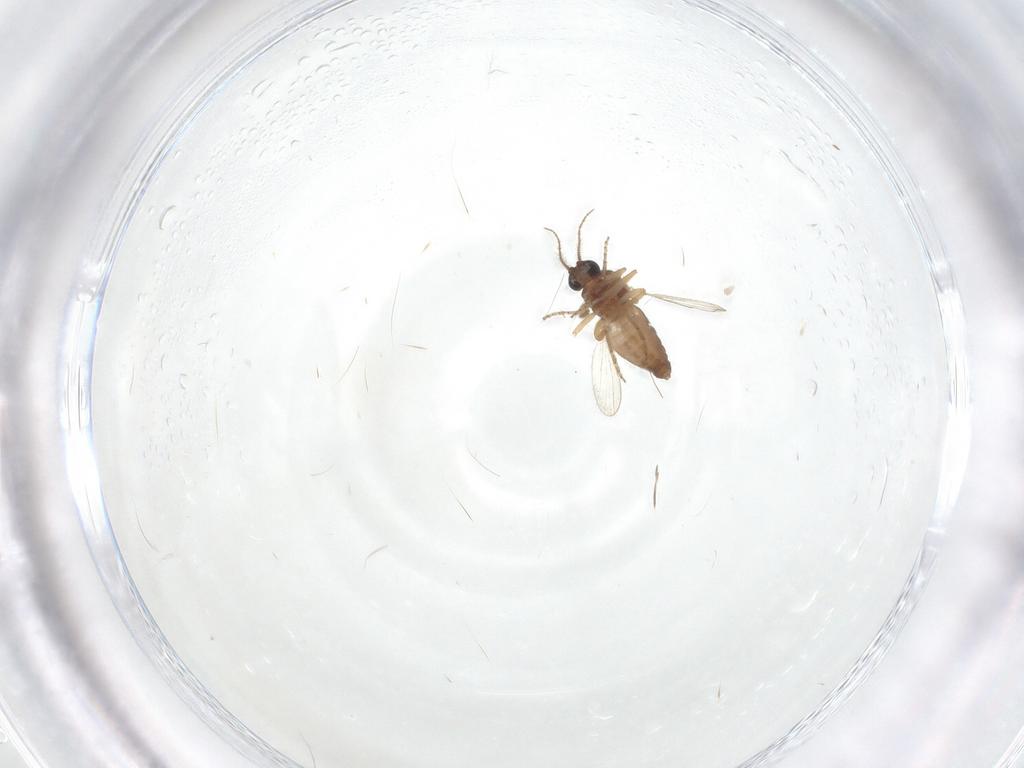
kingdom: Animalia
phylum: Arthropoda
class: Insecta
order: Diptera
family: Ceratopogonidae
